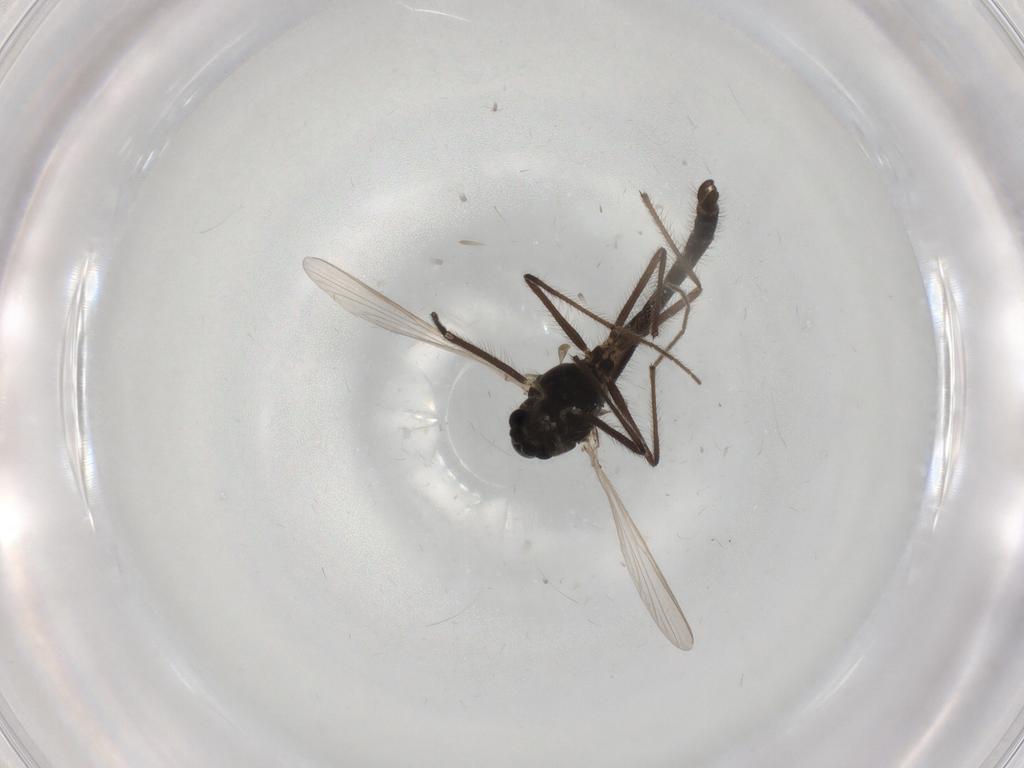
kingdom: Animalia
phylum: Arthropoda
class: Insecta
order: Diptera
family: Chironomidae
